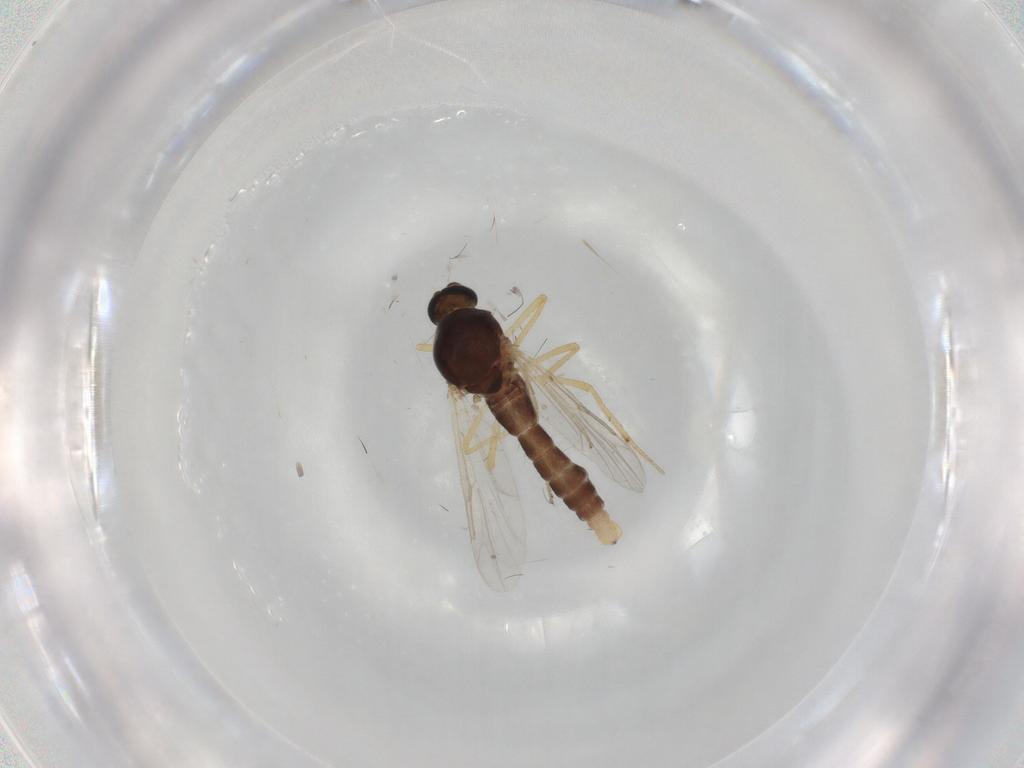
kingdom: Animalia
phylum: Arthropoda
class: Insecta
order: Diptera
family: Ceratopogonidae
